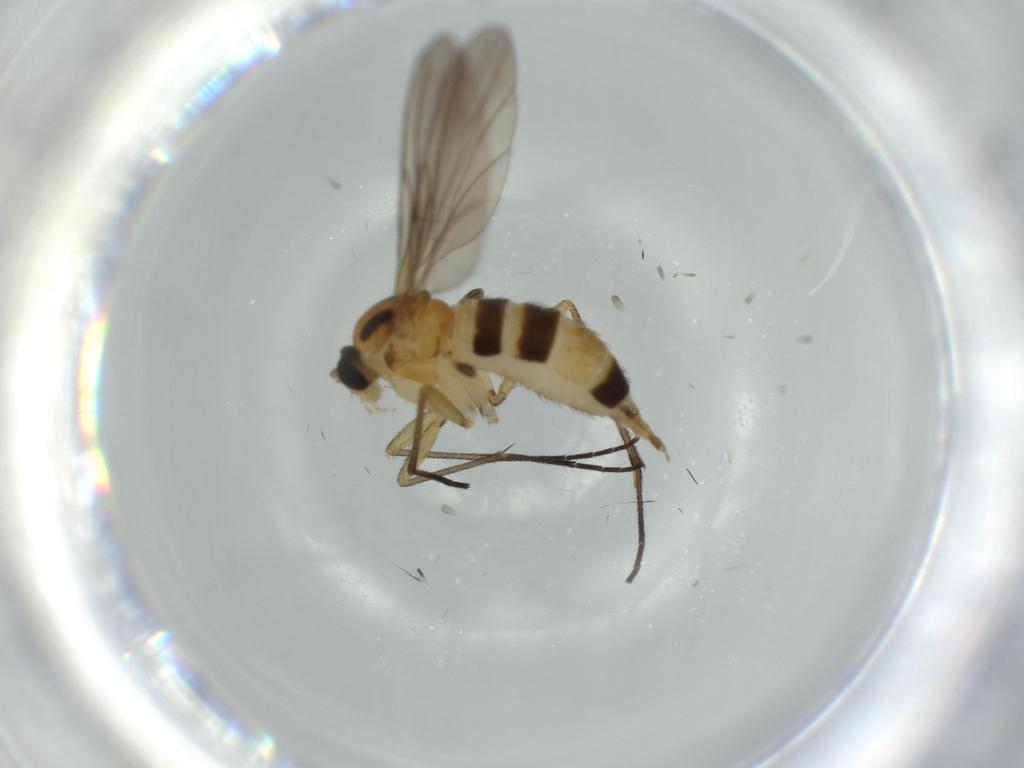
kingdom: Animalia
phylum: Arthropoda
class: Insecta
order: Diptera
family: Sciaridae
